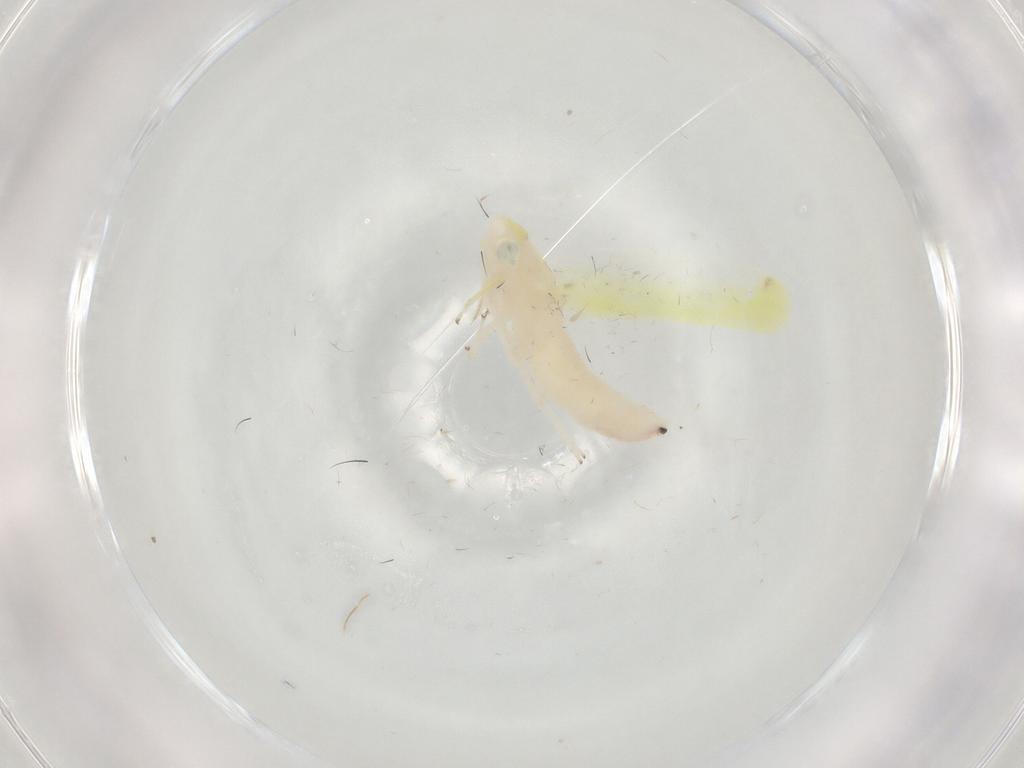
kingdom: Animalia
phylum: Arthropoda
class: Insecta
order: Hemiptera
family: Cicadellidae
